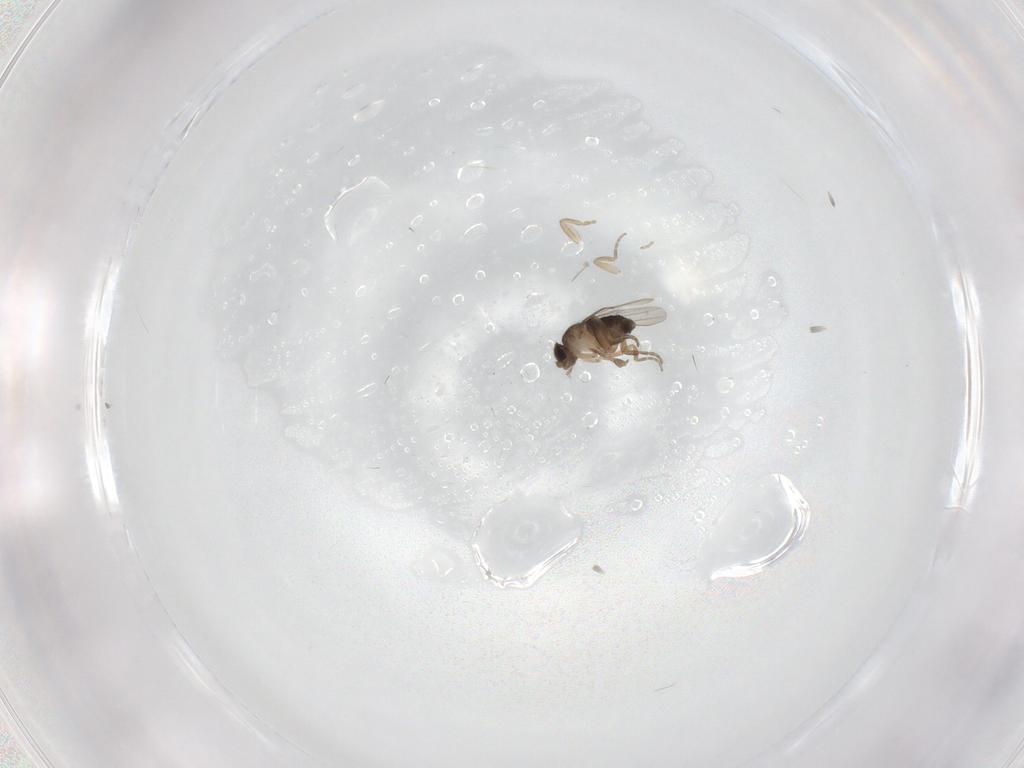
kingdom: Animalia
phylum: Arthropoda
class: Insecta
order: Diptera
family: Phoridae
